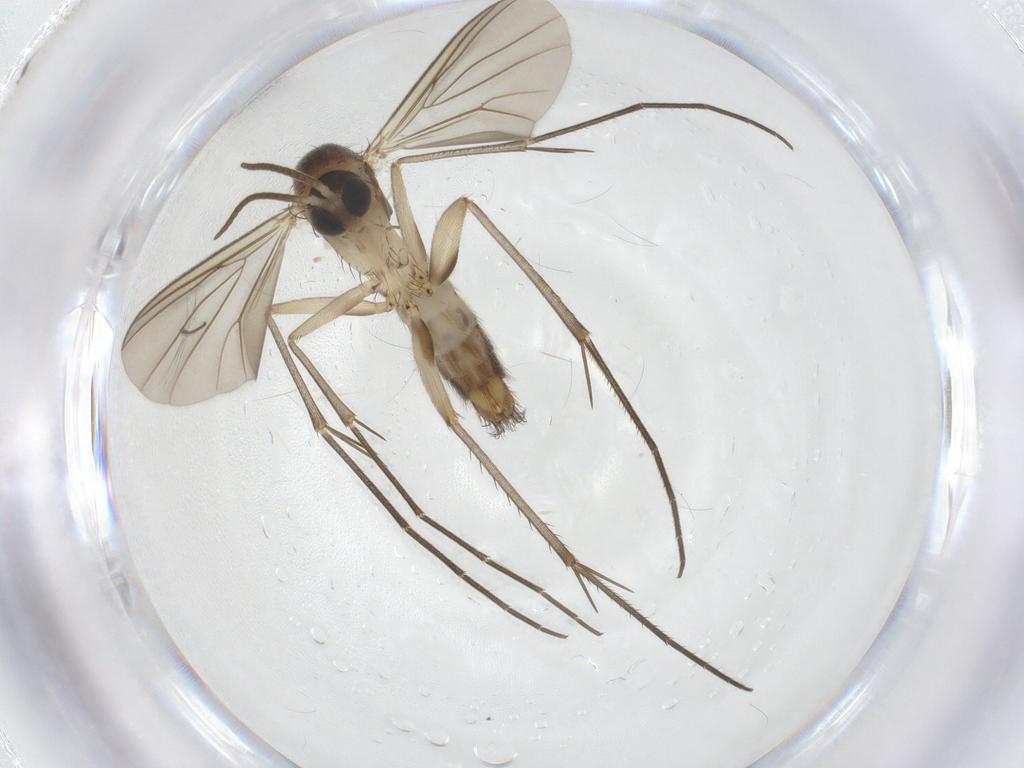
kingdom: Animalia
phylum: Arthropoda
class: Insecta
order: Diptera
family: Mycetophilidae
